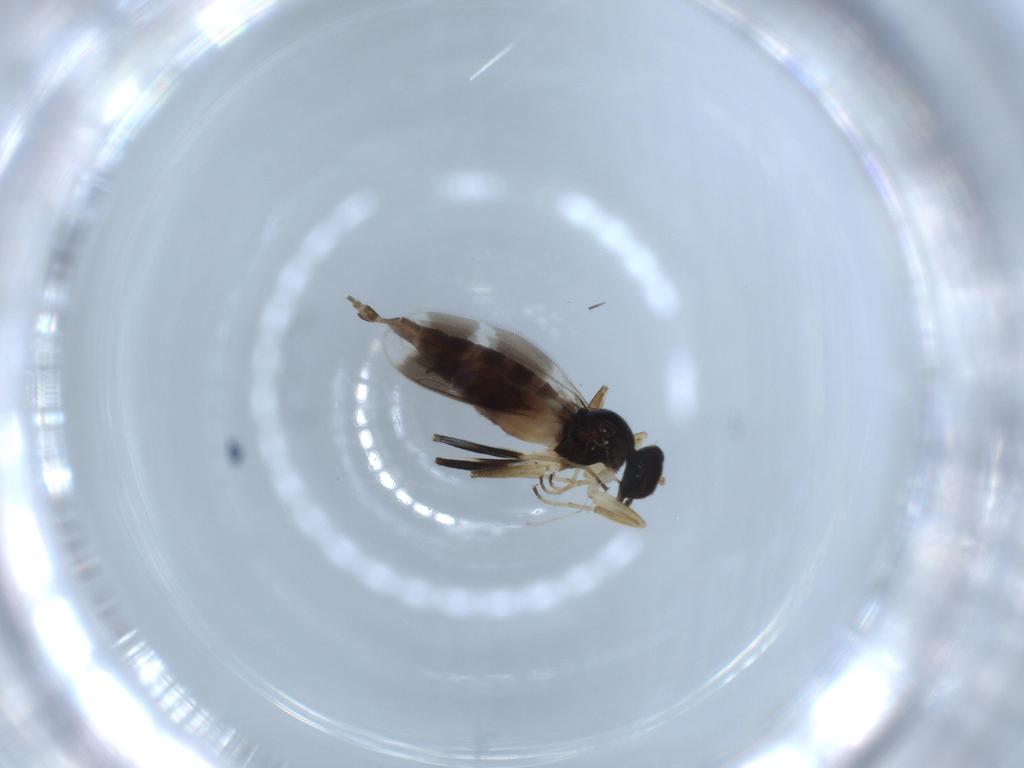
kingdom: Animalia
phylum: Arthropoda
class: Insecta
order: Diptera
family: Hybotidae
